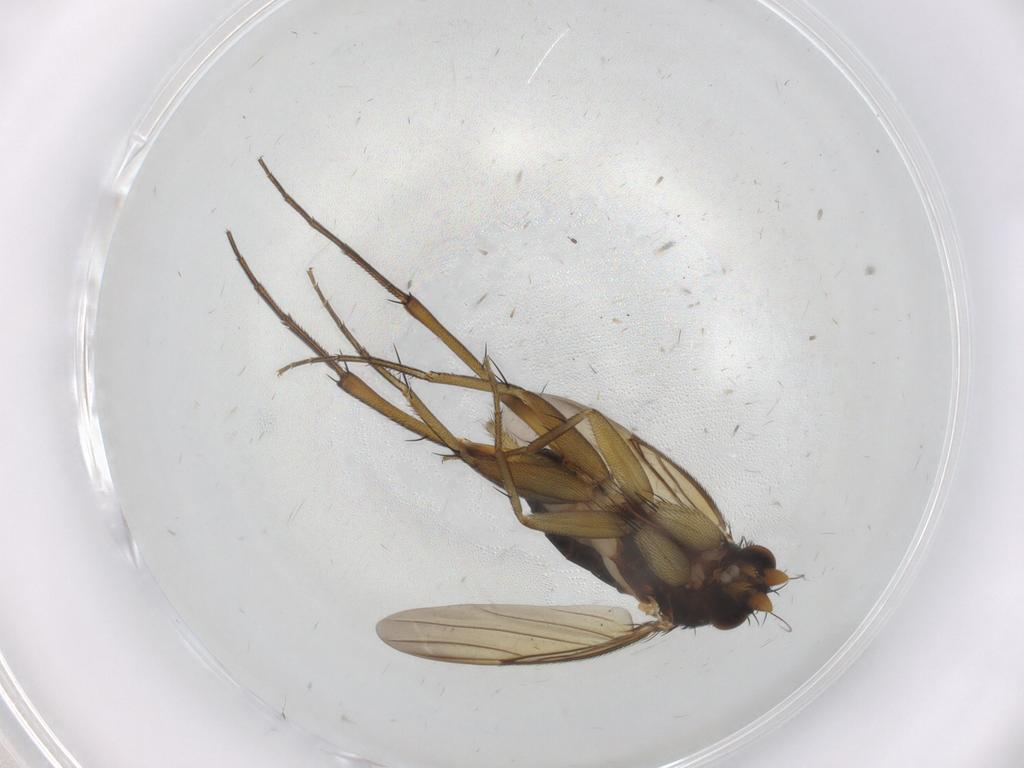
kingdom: Animalia
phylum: Arthropoda
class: Insecta
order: Diptera
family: Phoridae
